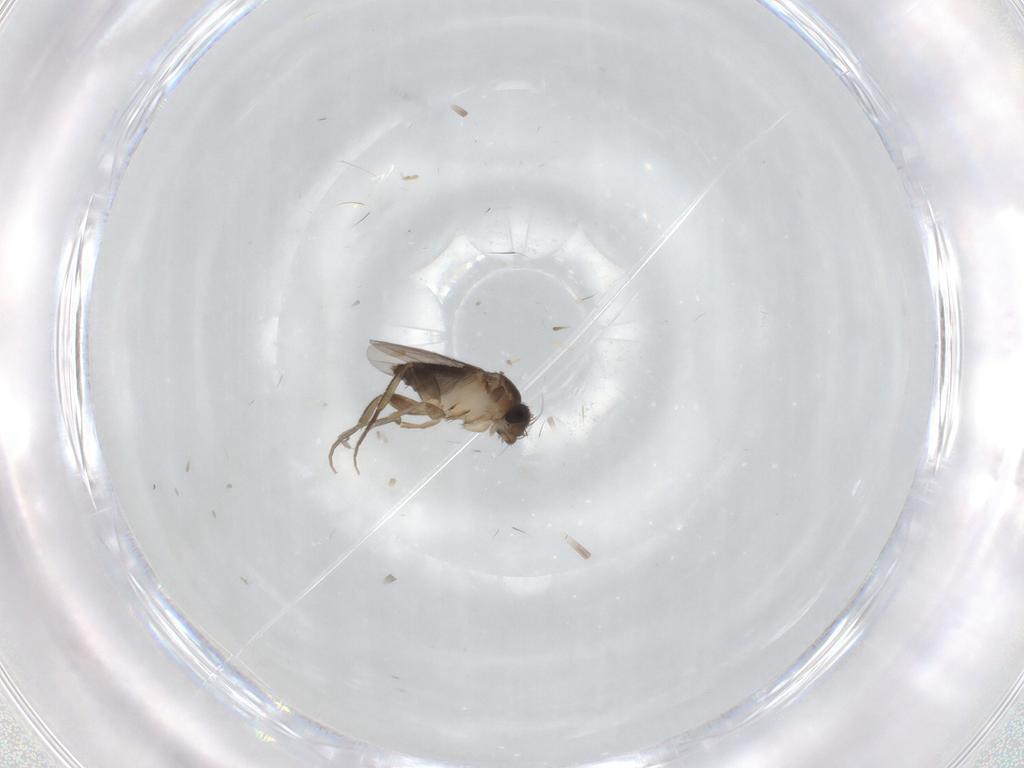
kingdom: Animalia
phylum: Arthropoda
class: Insecta
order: Diptera
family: Phoridae
